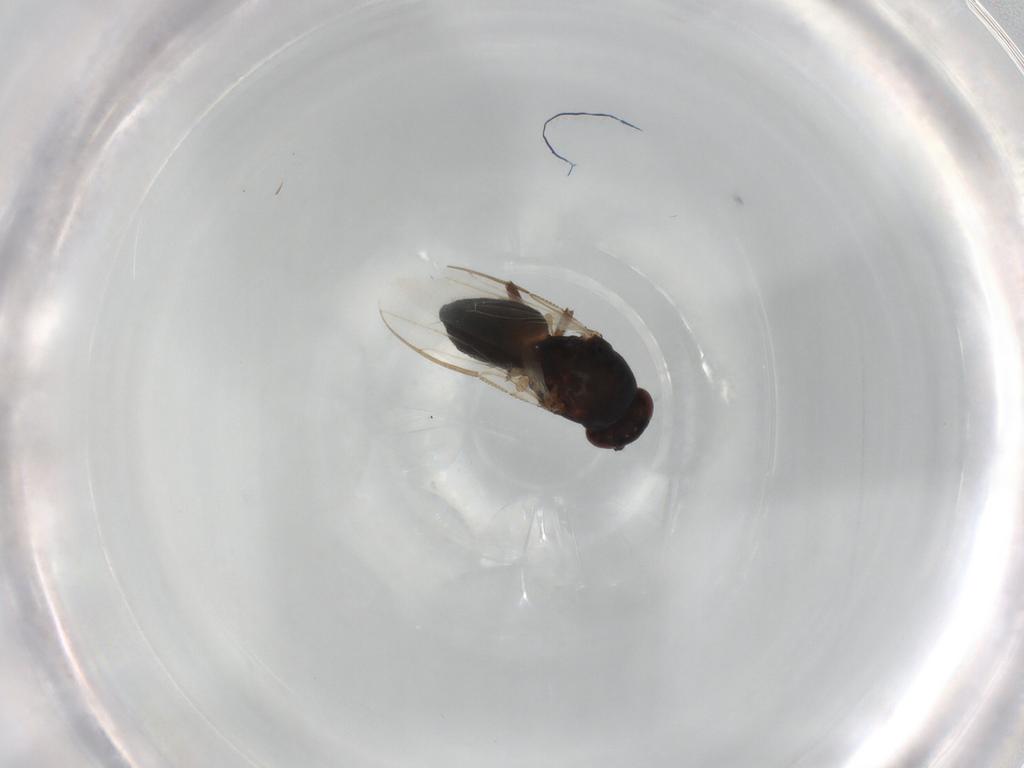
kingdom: Animalia
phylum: Arthropoda
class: Insecta
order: Diptera
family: Sphaeroceridae
